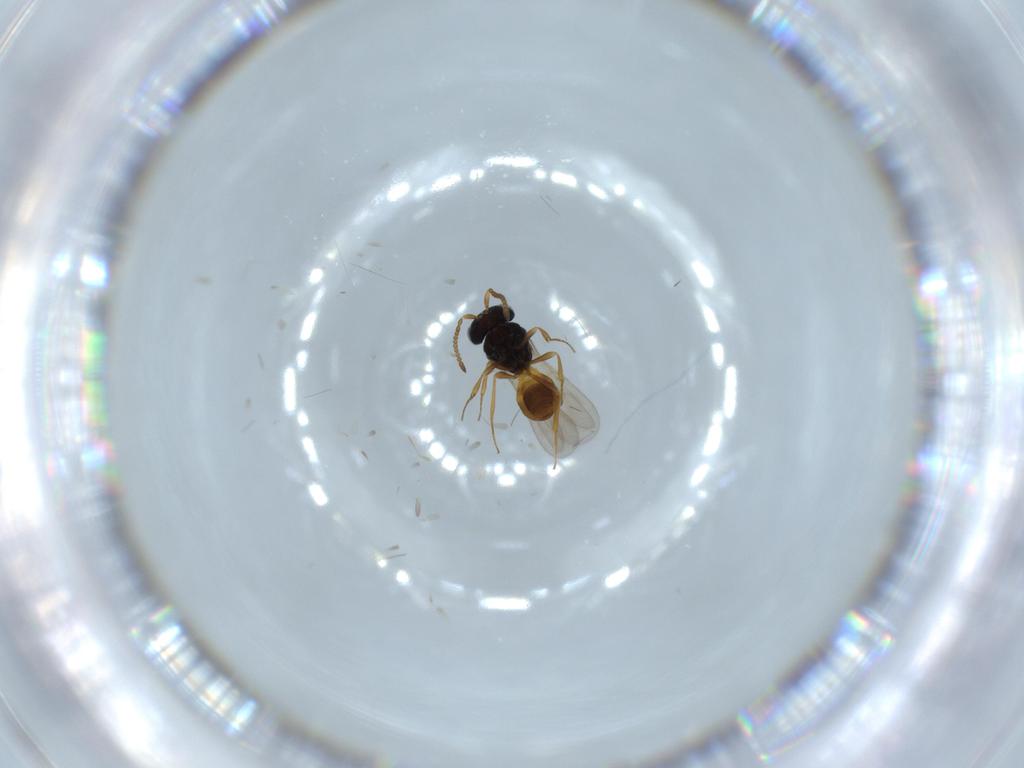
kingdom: Animalia
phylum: Arthropoda
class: Insecta
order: Hymenoptera
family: Scelionidae
